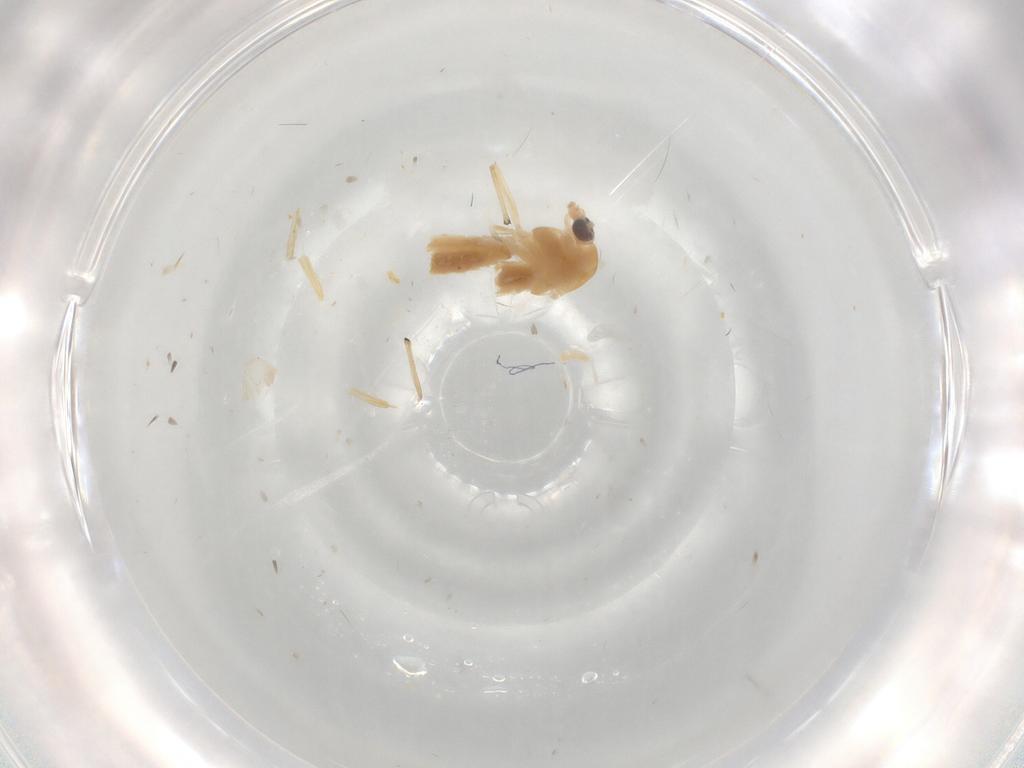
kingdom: Animalia
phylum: Arthropoda
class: Insecta
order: Diptera
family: Chironomidae
